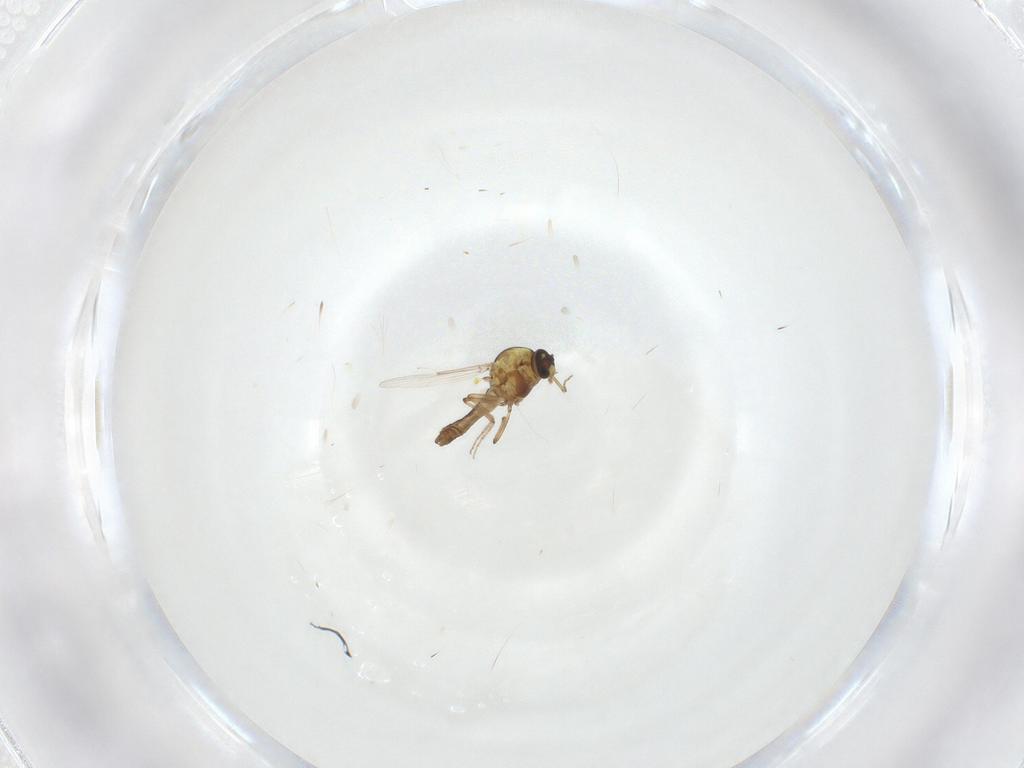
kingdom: Animalia
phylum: Arthropoda
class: Insecta
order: Diptera
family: Ceratopogonidae
